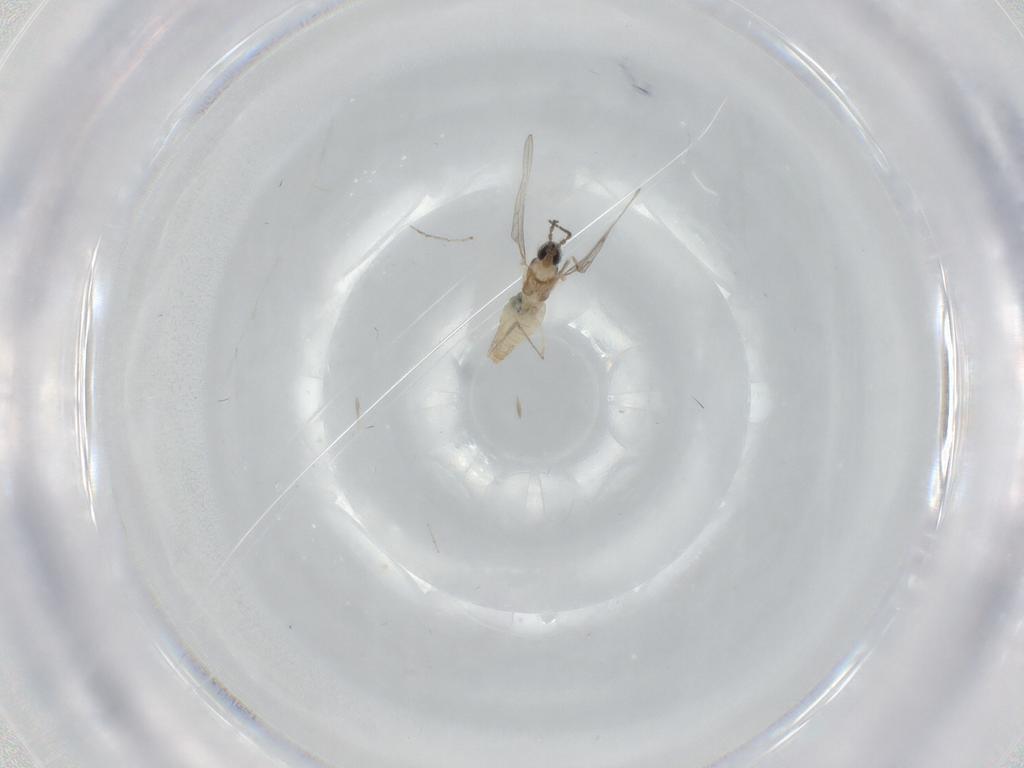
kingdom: Animalia
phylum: Arthropoda
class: Insecta
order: Diptera
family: Cecidomyiidae
